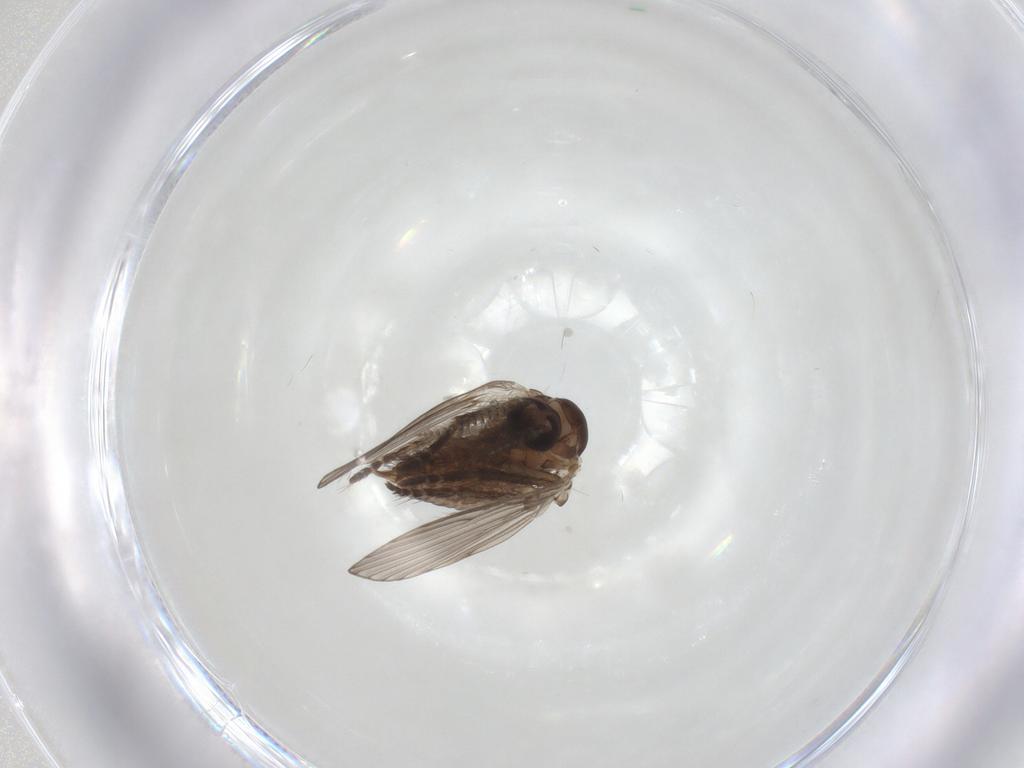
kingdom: Animalia
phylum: Arthropoda
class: Insecta
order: Diptera
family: Psychodidae
